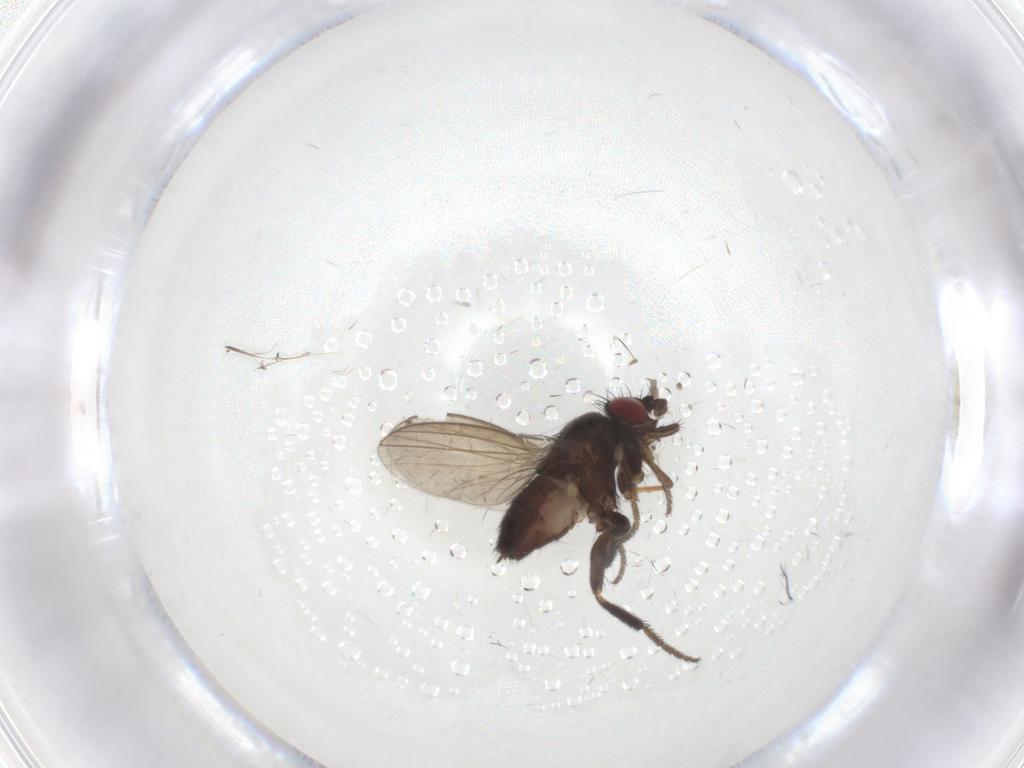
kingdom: Animalia
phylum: Arthropoda
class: Insecta
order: Diptera
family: Milichiidae
